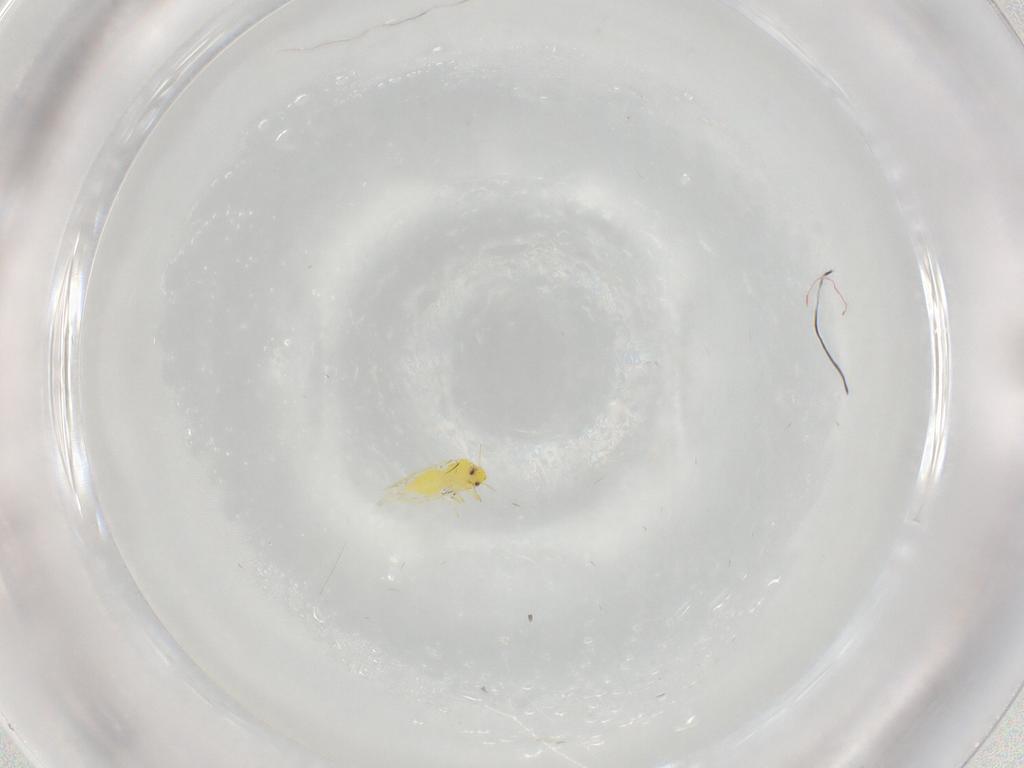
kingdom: Animalia
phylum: Arthropoda
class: Insecta
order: Hemiptera
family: Aleyrodidae
